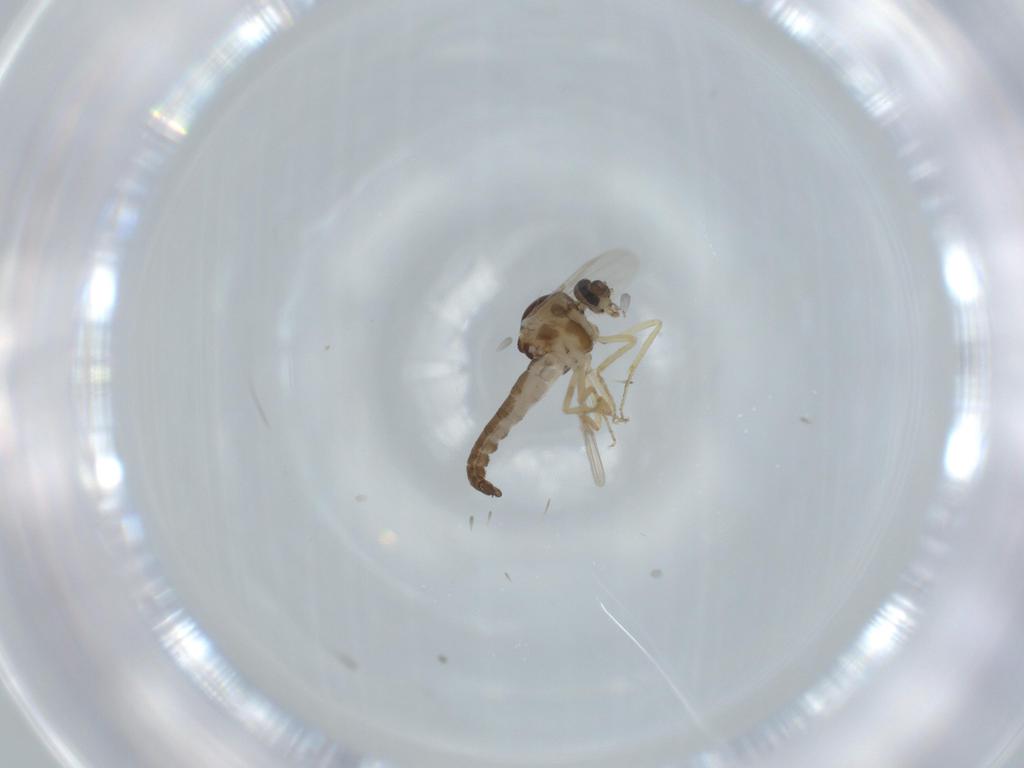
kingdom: Animalia
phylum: Arthropoda
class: Insecta
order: Diptera
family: Ceratopogonidae
